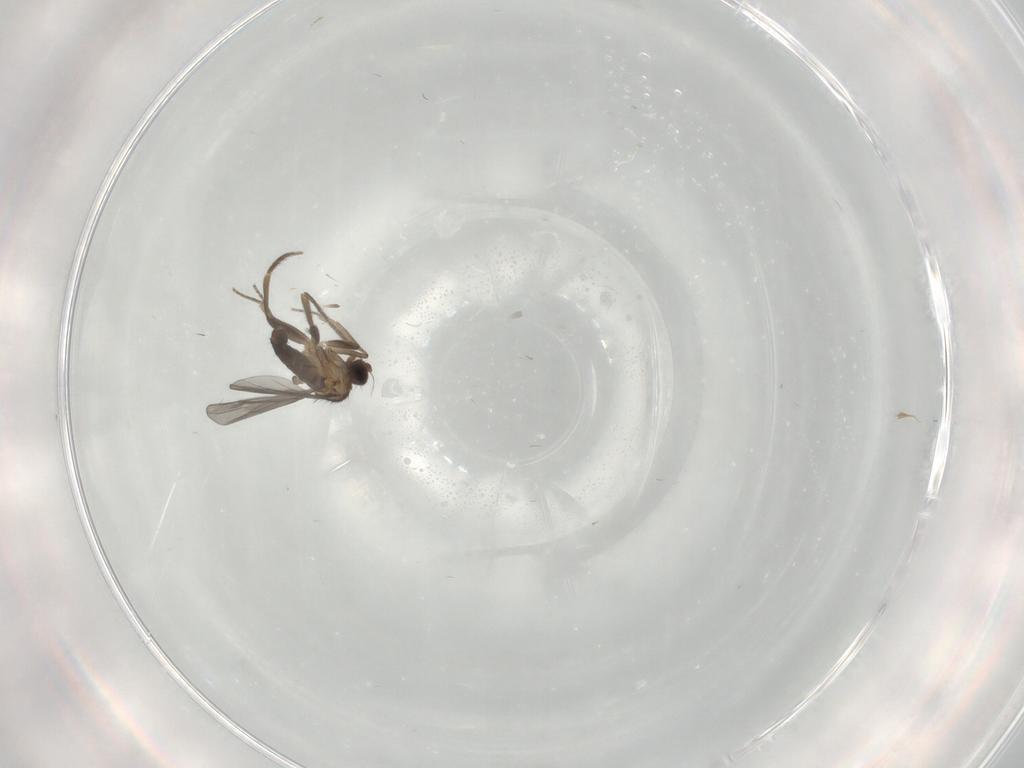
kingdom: Animalia
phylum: Arthropoda
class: Insecta
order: Diptera
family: Phoridae
